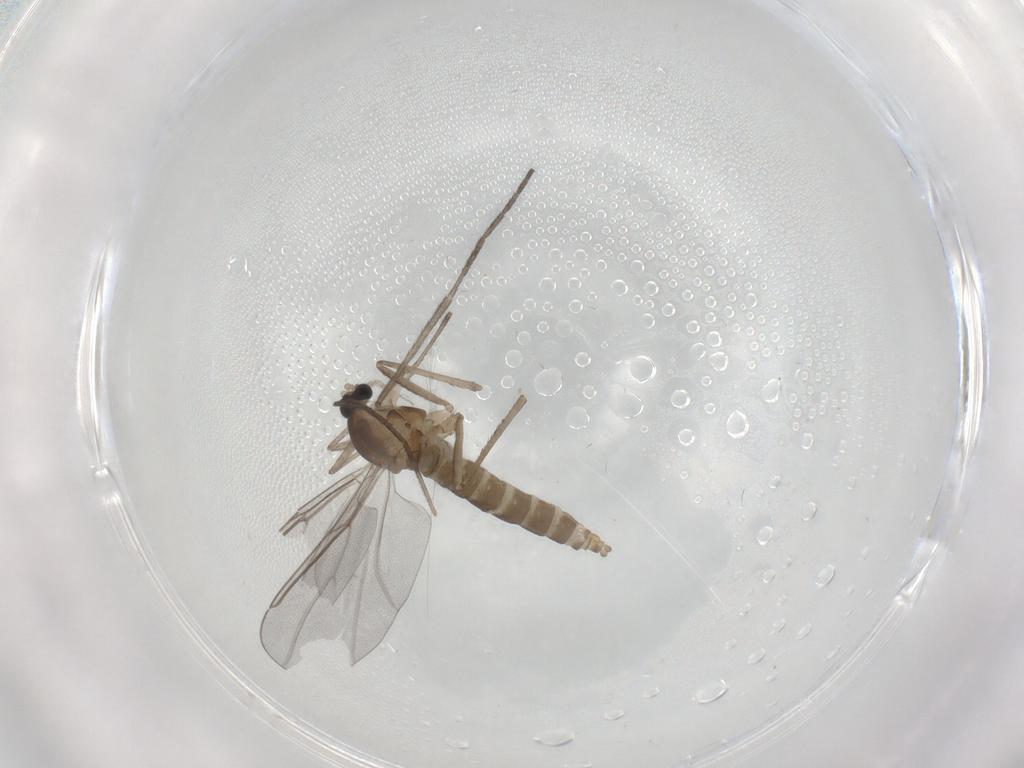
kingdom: Animalia
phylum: Arthropoda
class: Insecta
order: Diptera
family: Cecidomyiidae
